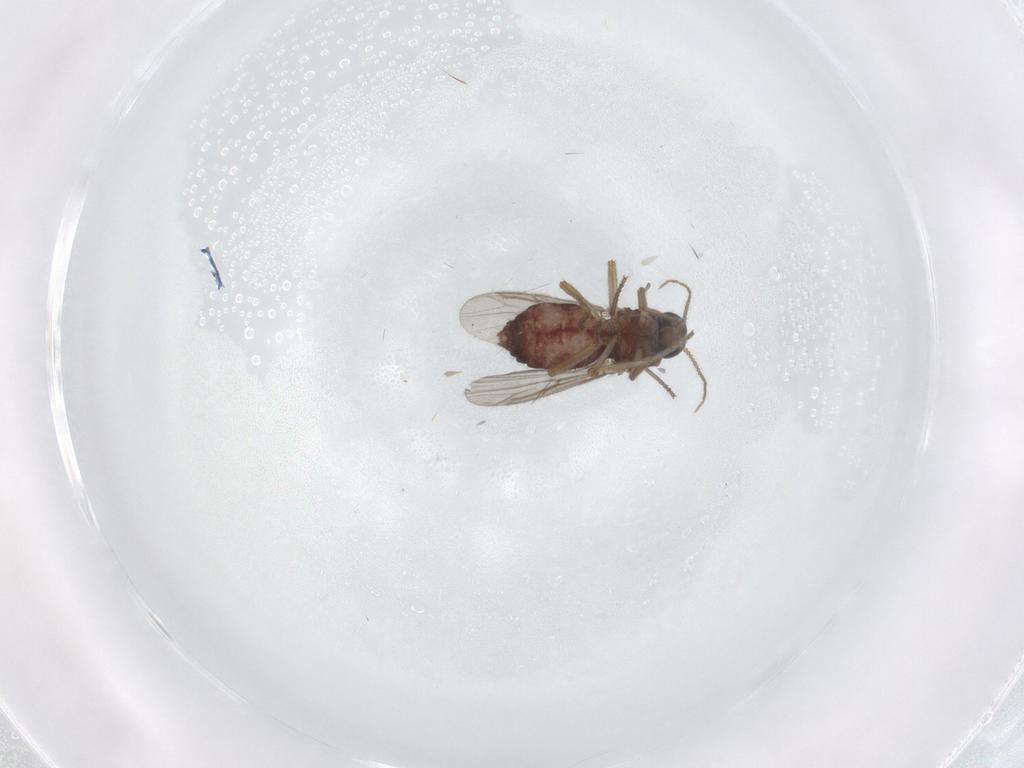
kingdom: Animalia
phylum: Arthropoda
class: Insecta
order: Diptera
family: Ceratopogonidae
